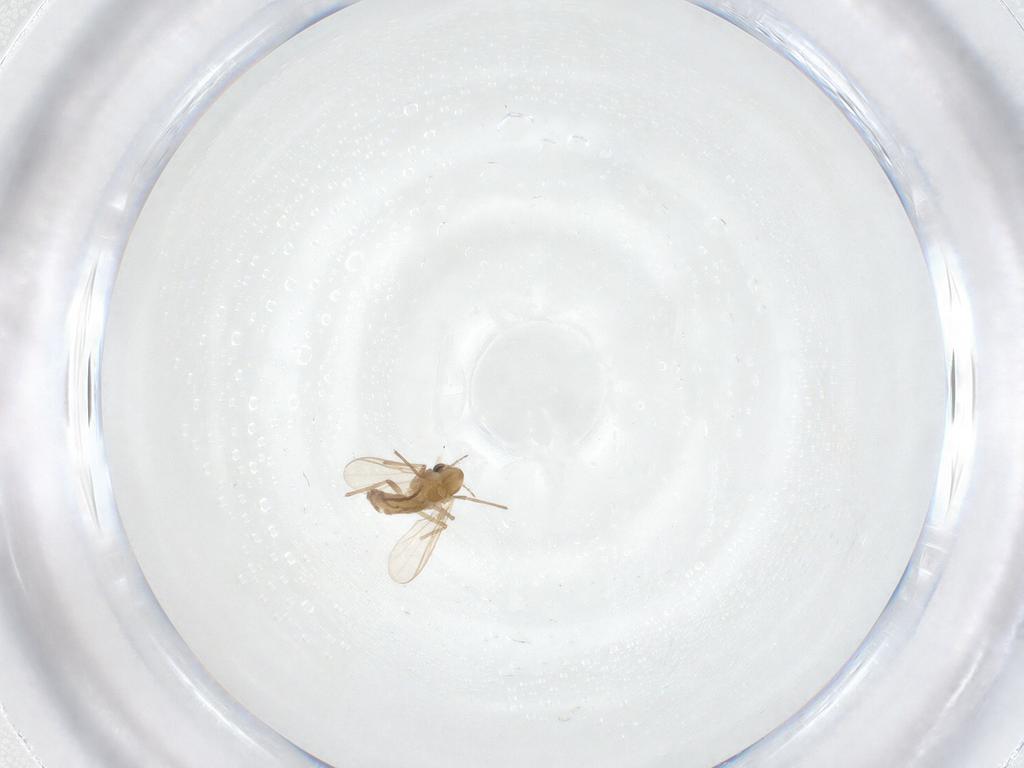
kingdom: Animalia
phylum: Arthropoda
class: Insecta
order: Diptera
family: Chironomidae
